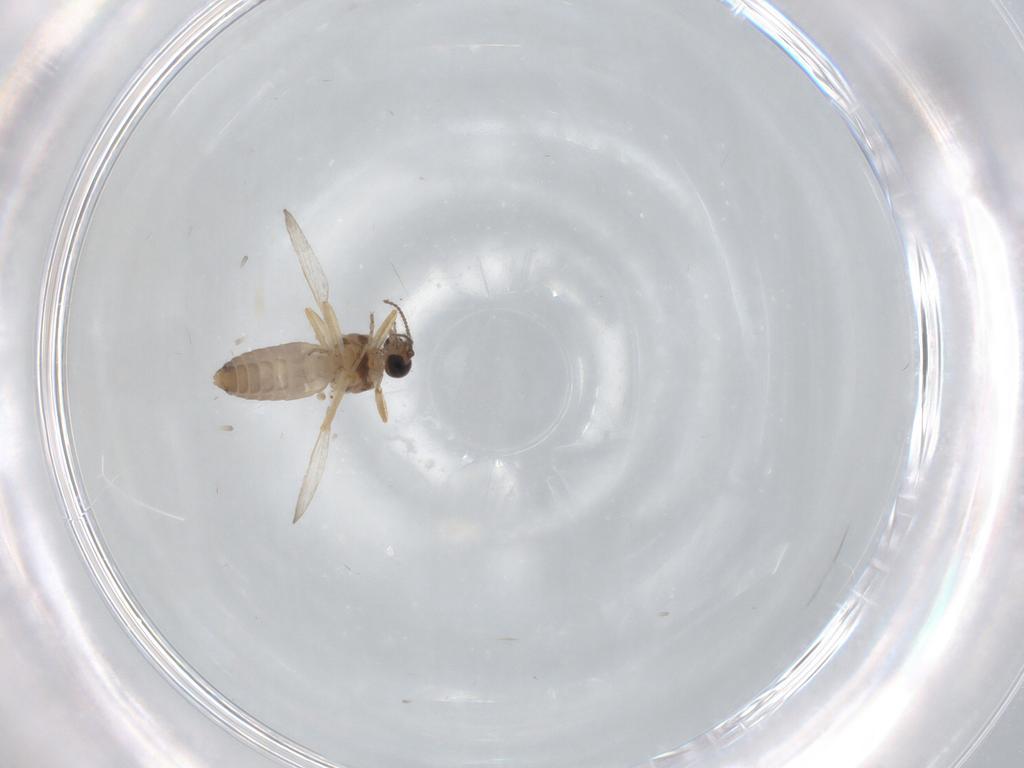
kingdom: Animalia
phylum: Arthropoda
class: Insecta
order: Diptera
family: Ceratopogonidae
